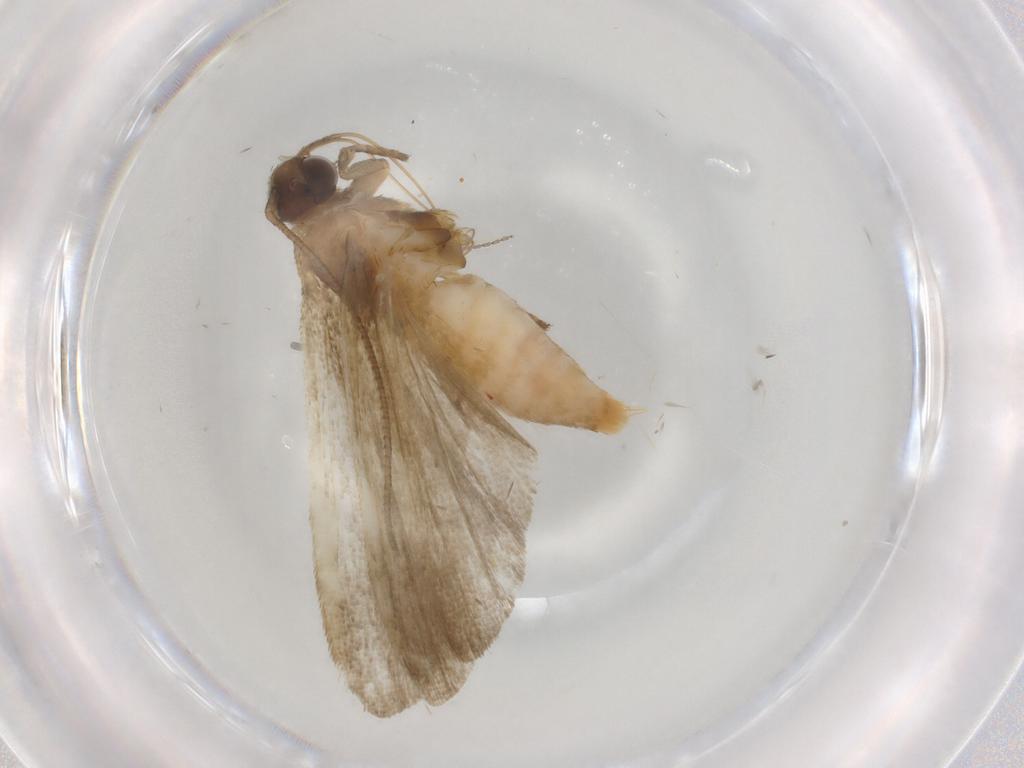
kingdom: Animalia
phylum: Arthropoda
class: Insecta
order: Lepidoptera
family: Noctuidae
